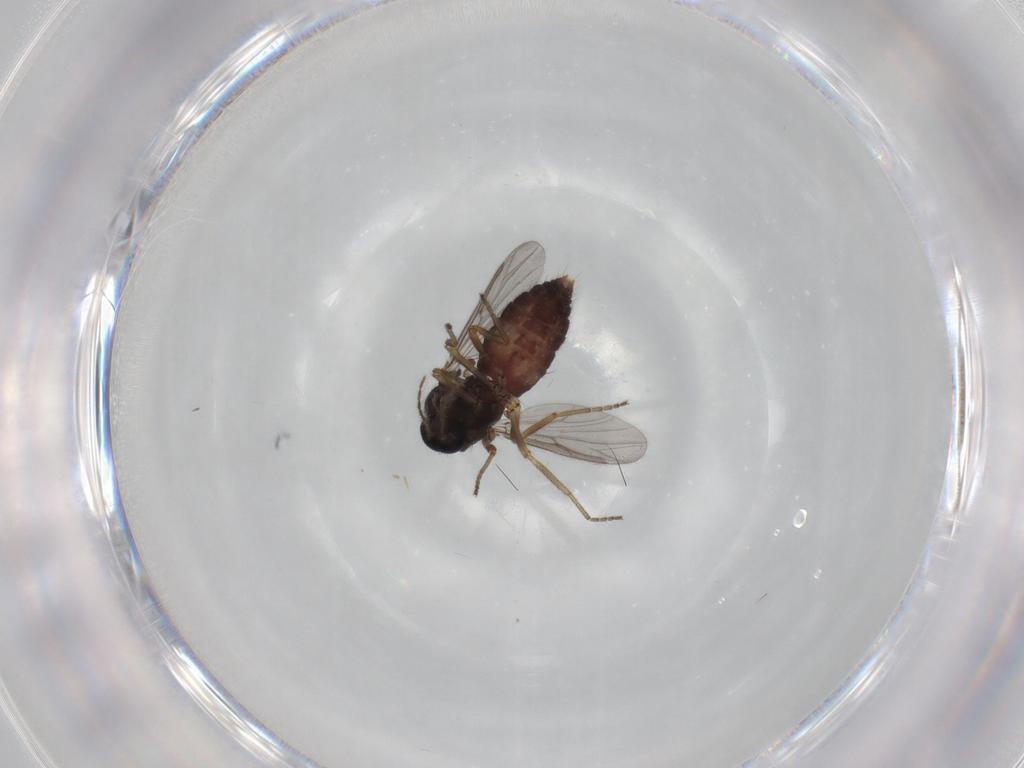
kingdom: Animalia
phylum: Arthropoda
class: Insecta
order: Diptera
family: Ceratopogonidae
